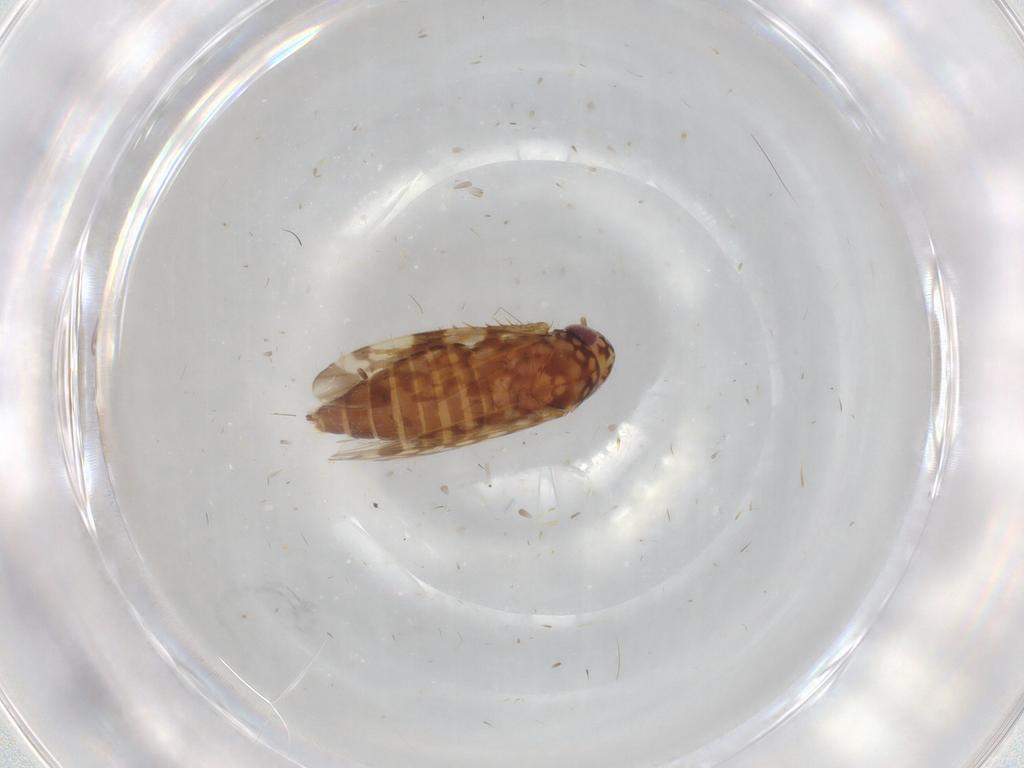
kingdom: Animalia
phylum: Arthropoda
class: Insecta
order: Hemiptera
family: Cicadellidae
